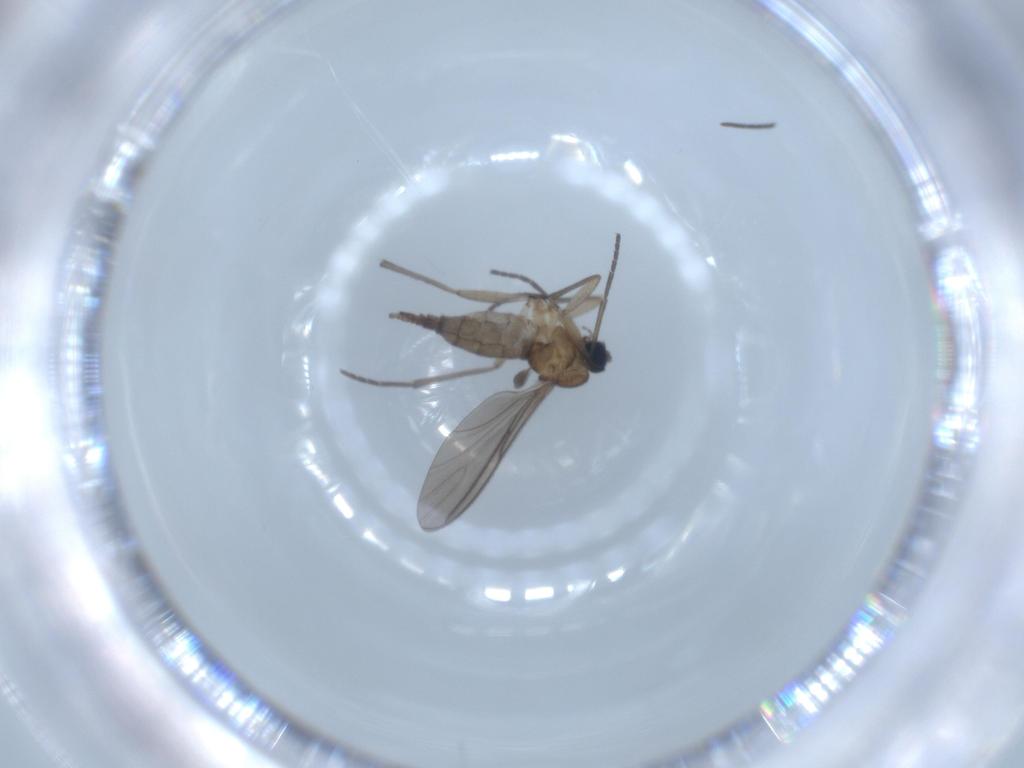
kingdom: Animalia
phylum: Arthropoda
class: Insecta
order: Diptera
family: Sciaridae
